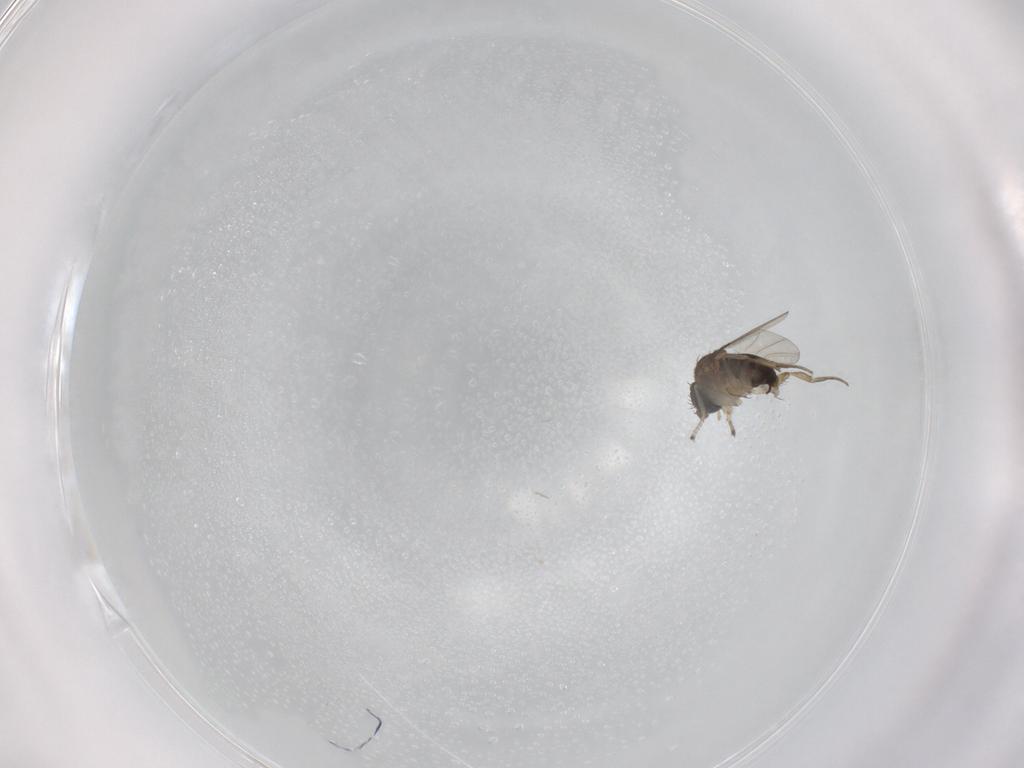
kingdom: Animalia
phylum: Arthropoda
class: Insecta
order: Diptera
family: Phoridae
